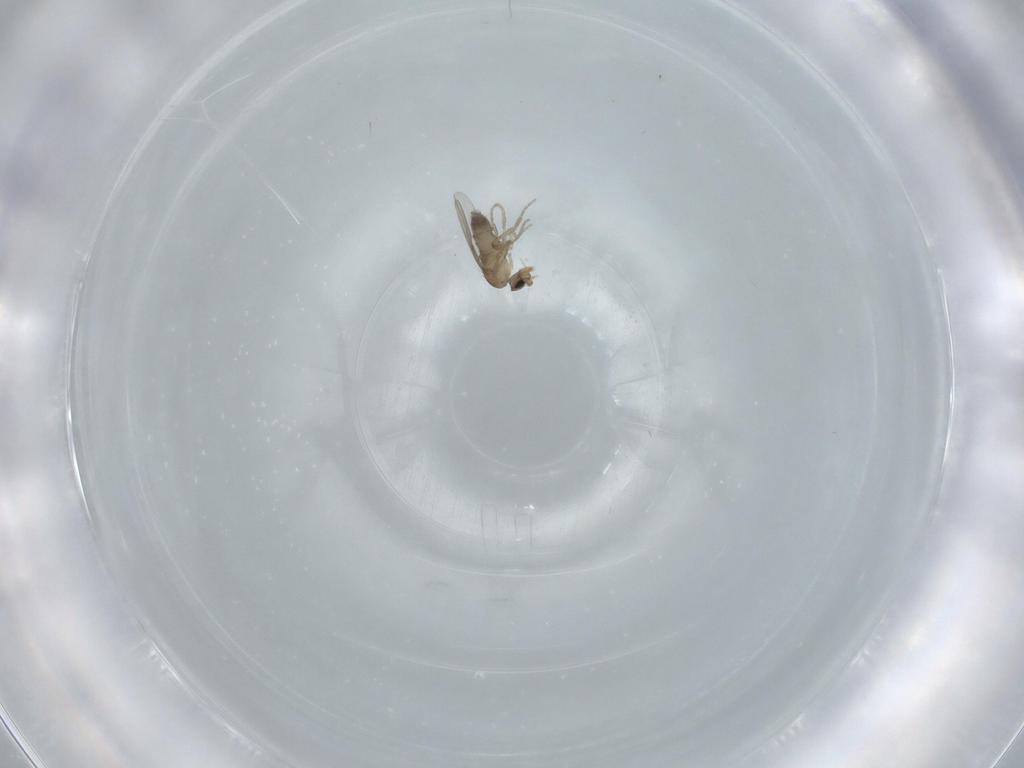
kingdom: Animalia
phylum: Arthropoda
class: Insecta
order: Diptera
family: Phoridae
